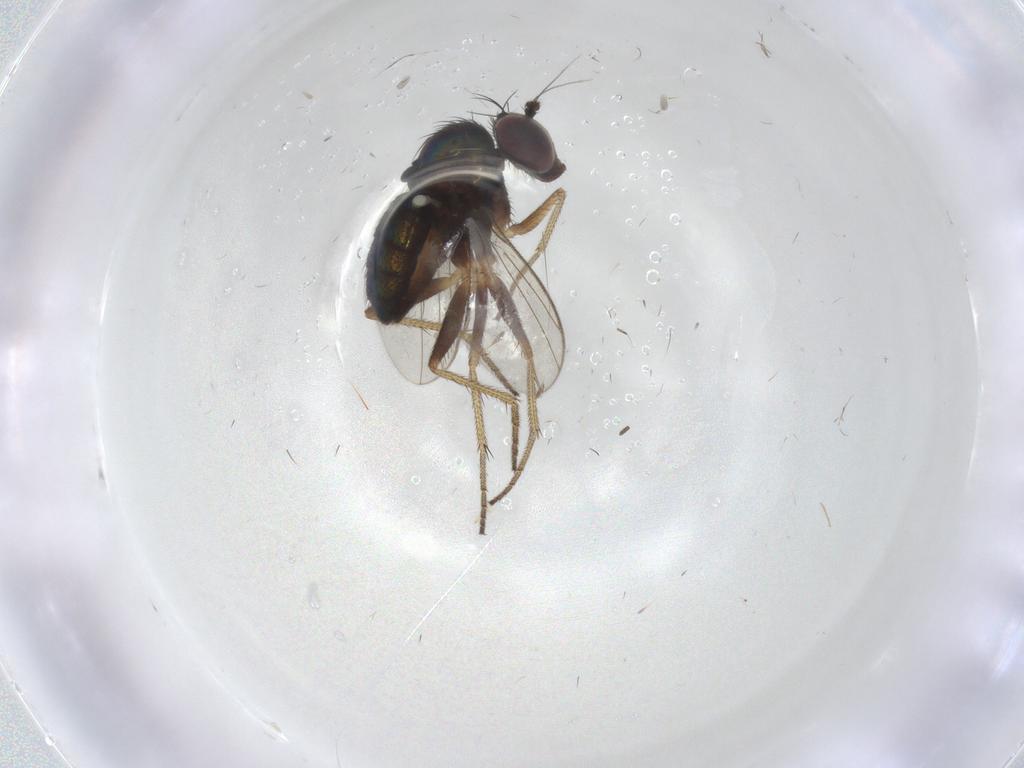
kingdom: Animalia
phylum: Arthropoda
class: Insecta
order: Diptera
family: Dolichopodidae
